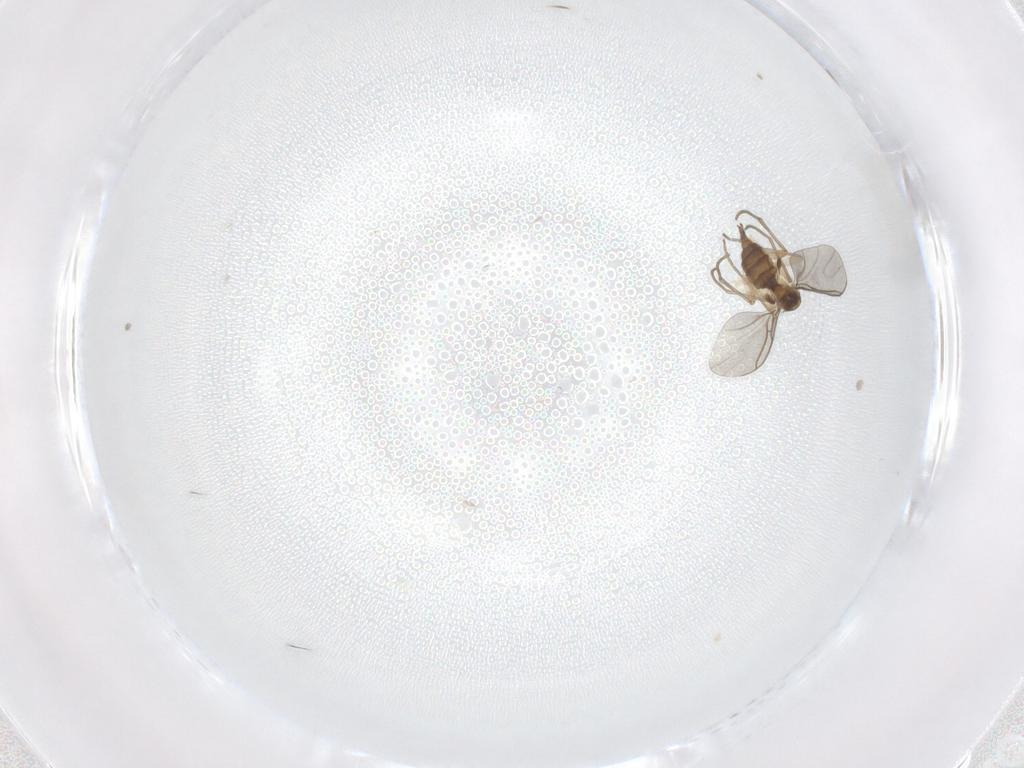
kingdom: Animalia
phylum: Arthropoda
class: Insecta
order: Diptera
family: Sciaridae
